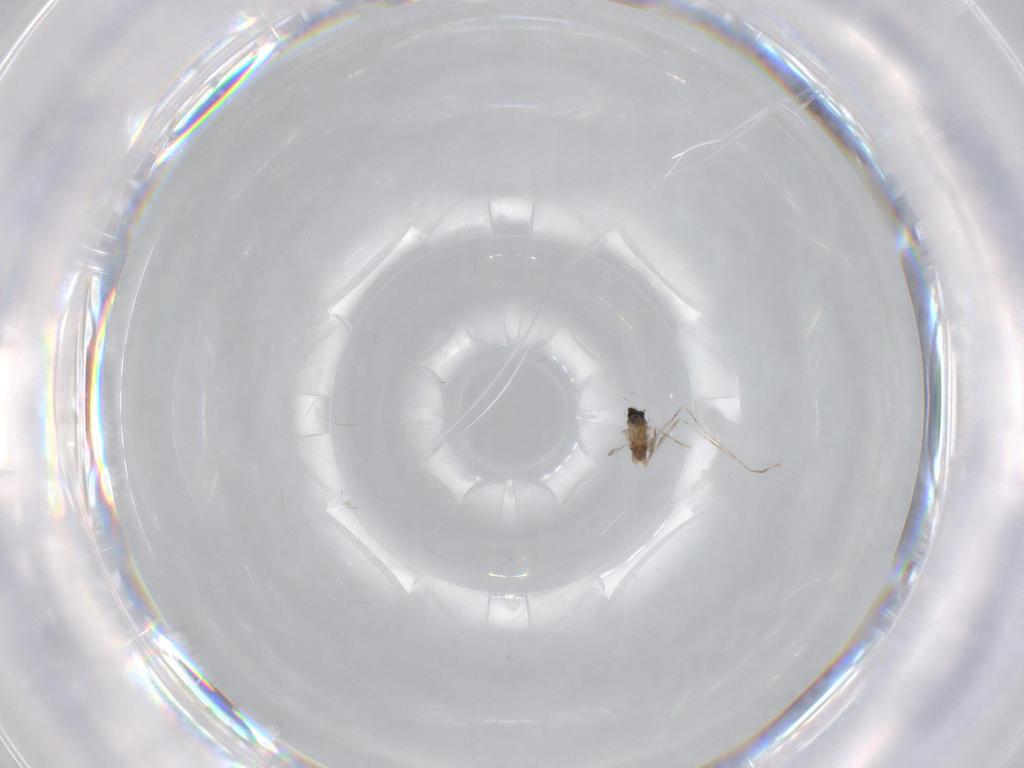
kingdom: Animalia
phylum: Arthropoda
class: Insecta
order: Diptera
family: Cecidomyiidae
